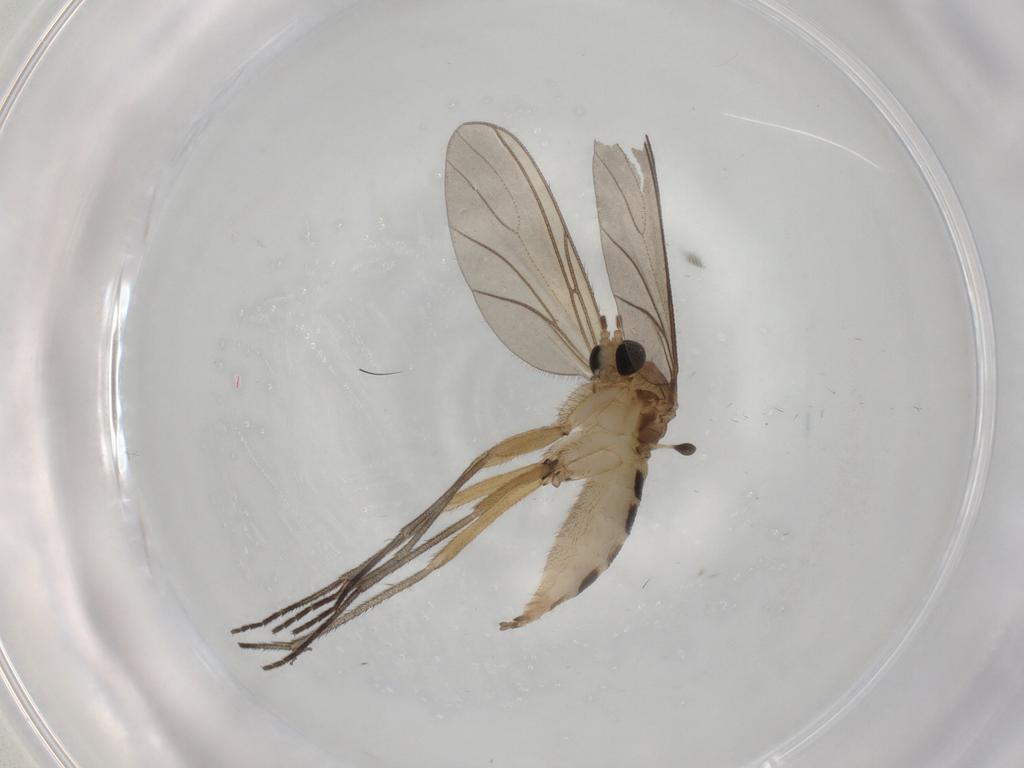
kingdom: Animalia
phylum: Arthropoda
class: Insecta
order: Diptera
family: Sciaridae
